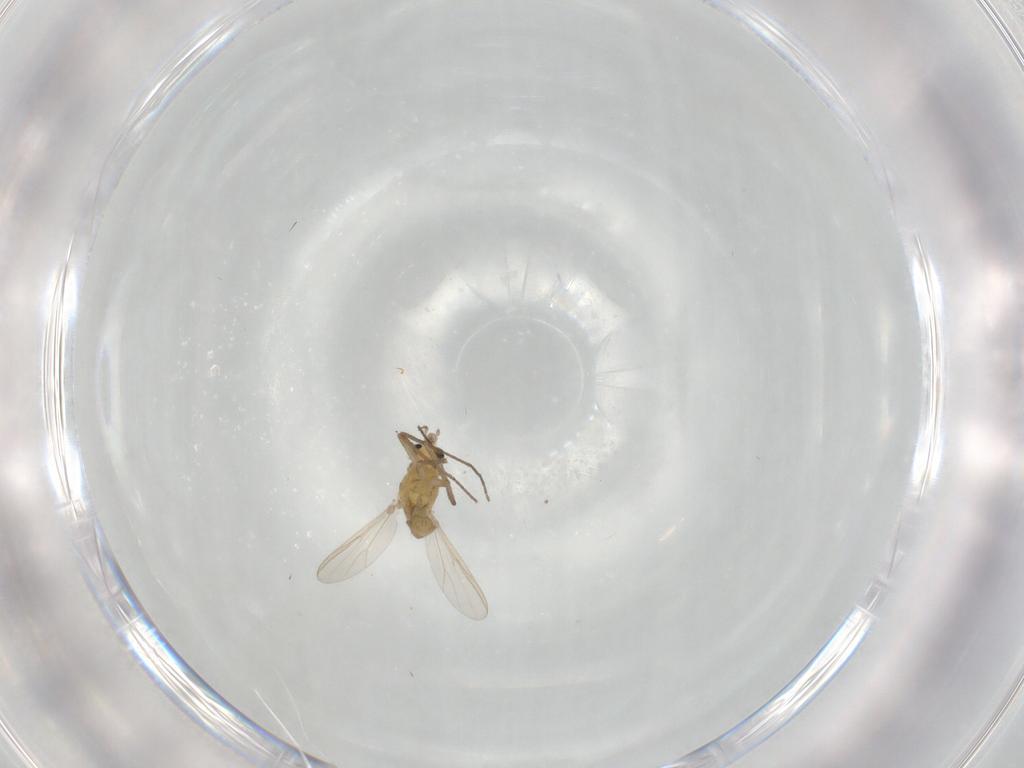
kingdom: Animalia
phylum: Arthropoda
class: Insecta
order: Diptera
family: Chironomidae
